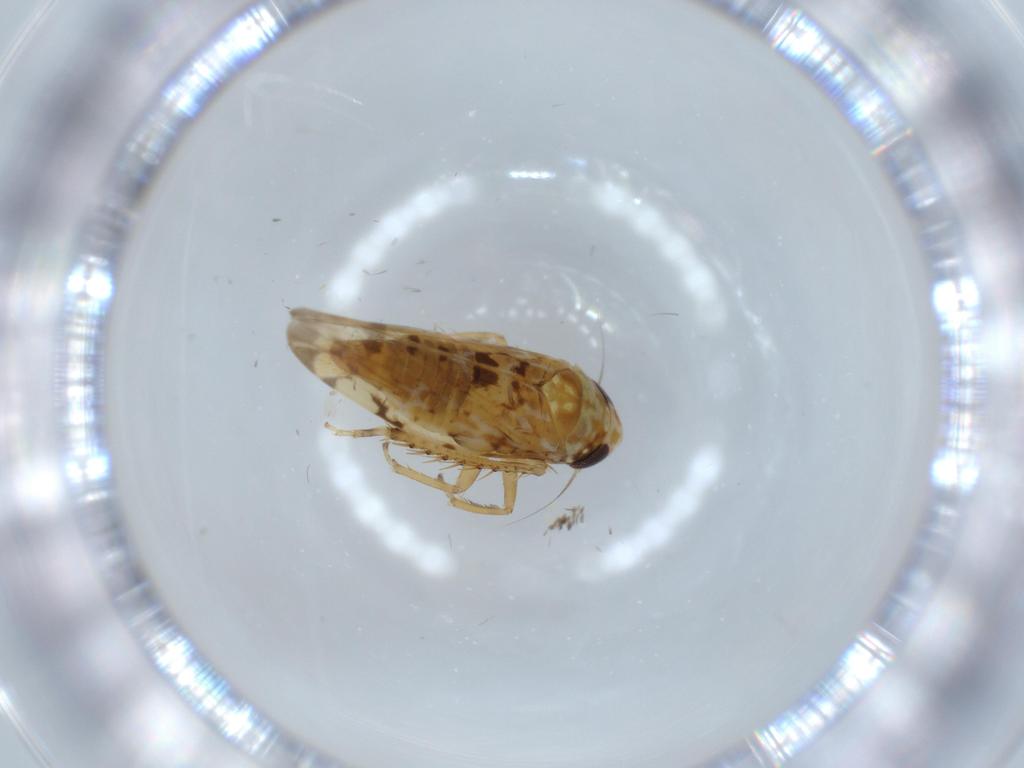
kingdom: Animalia
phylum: Arthropoda
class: Insecta
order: Hemiptera
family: Cicadellidae
